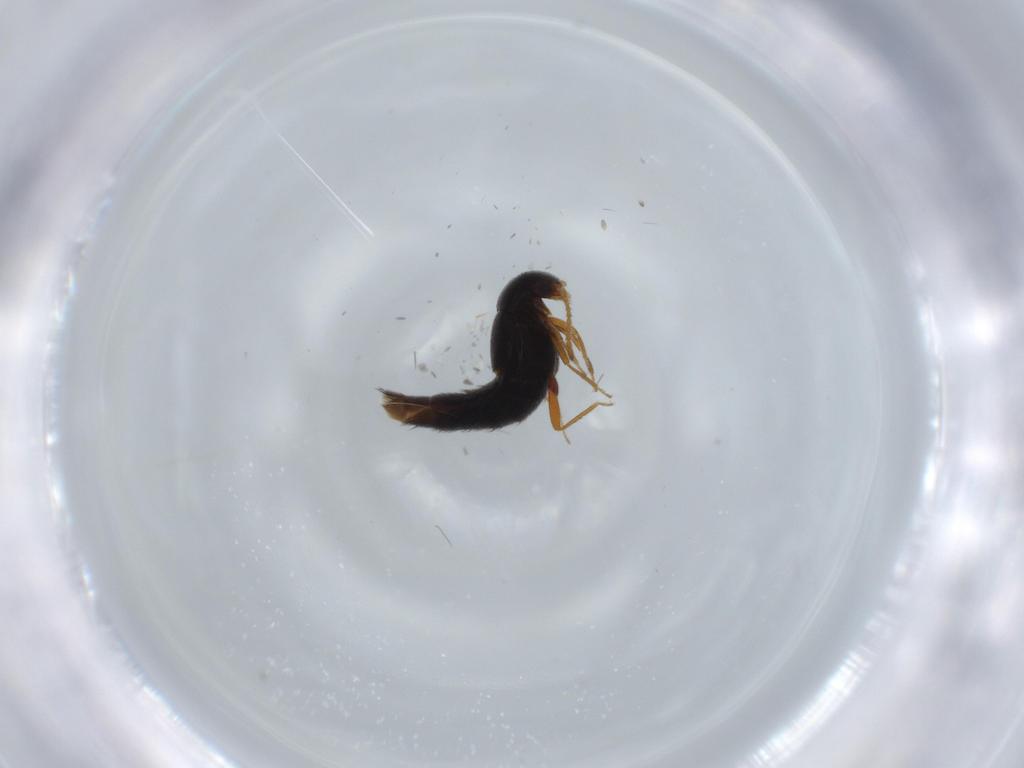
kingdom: Animalia
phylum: Arthropoda
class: Insecta
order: Coleoptera
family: Staphylinidae
